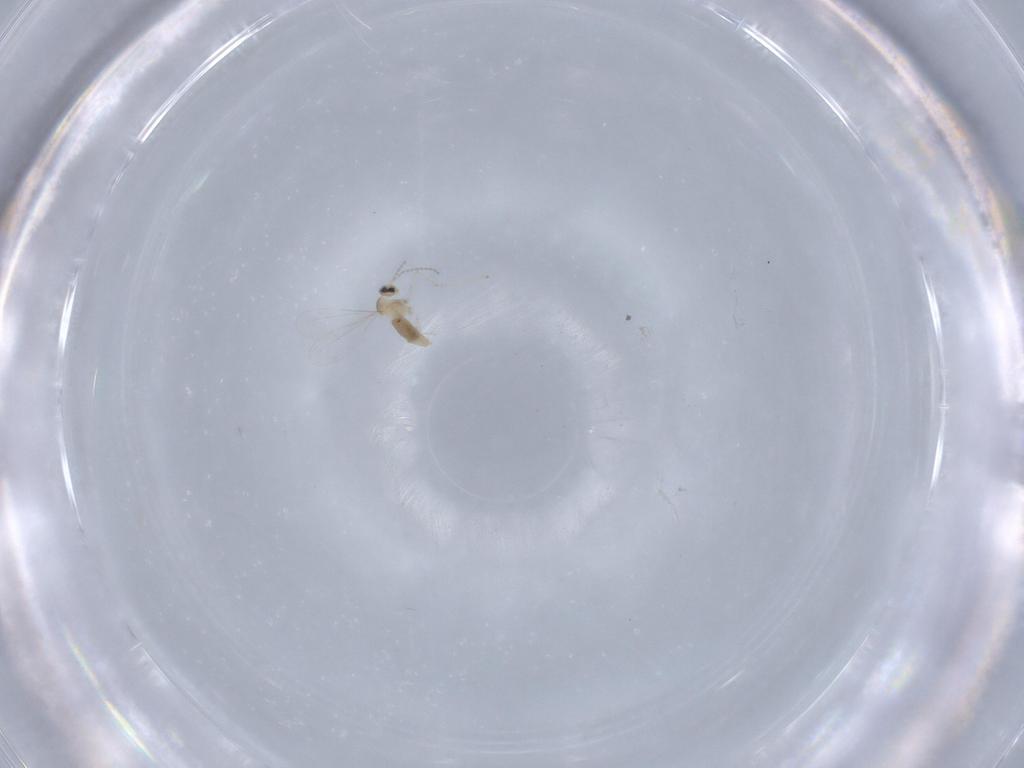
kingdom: Animalia
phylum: Arthropoda
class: Insecta
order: Diptera
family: Cecidomyiidae
